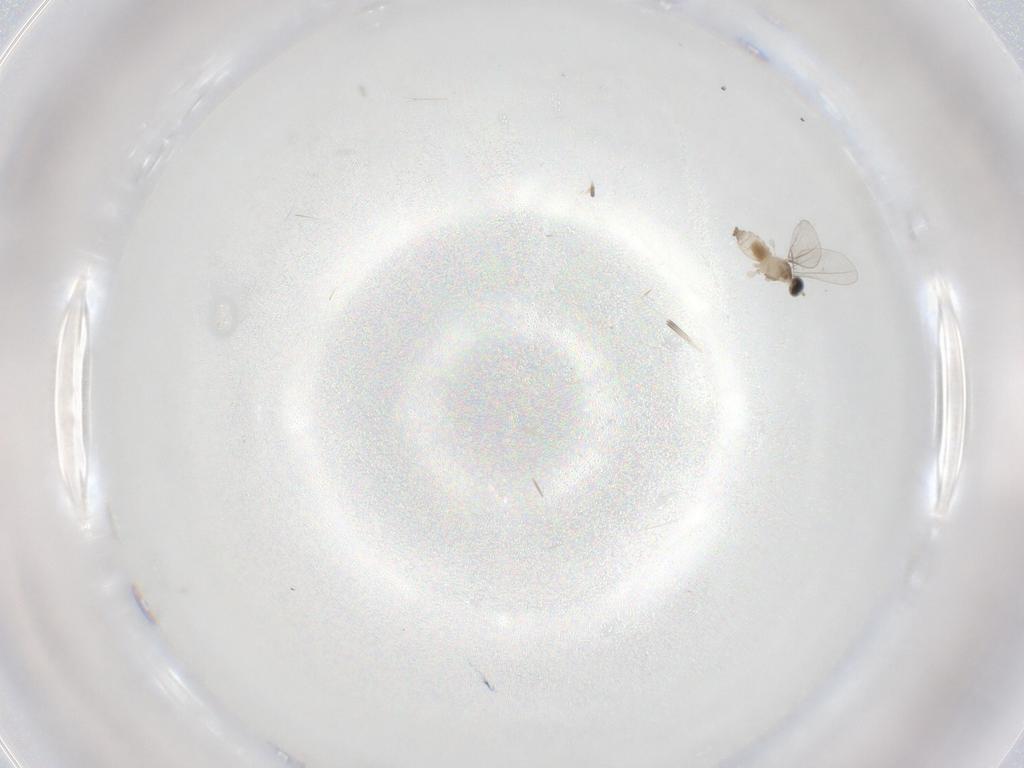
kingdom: Animalia
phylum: Arthropoda
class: Insecta
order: Diptera
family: Cecidomyiidae
